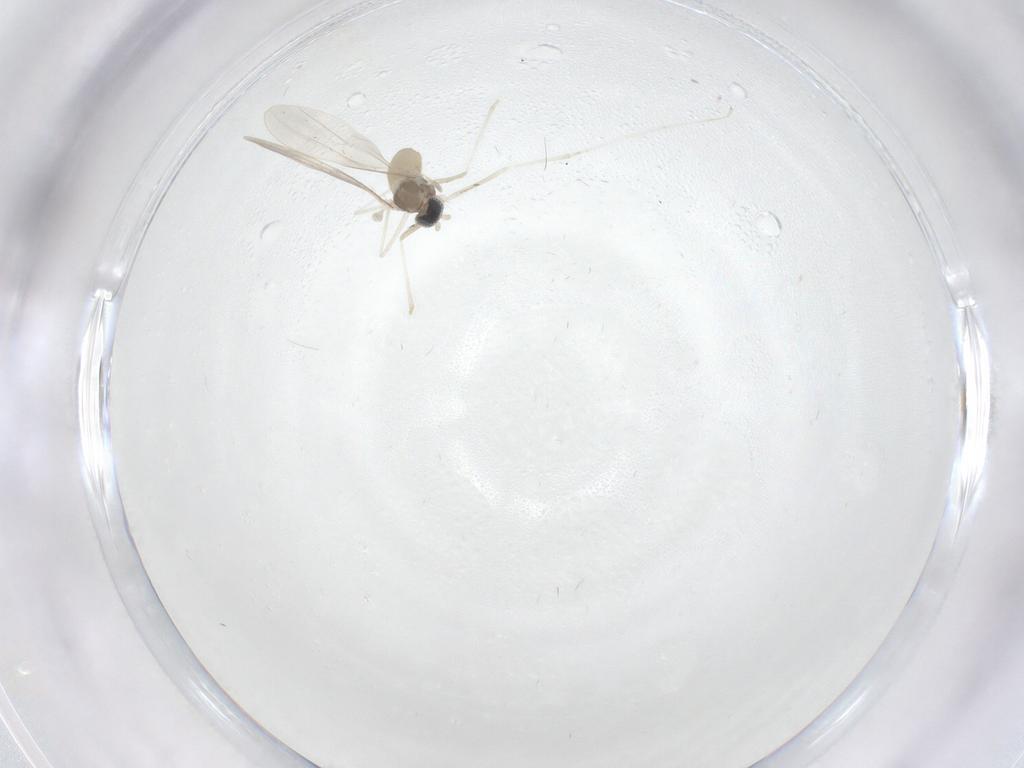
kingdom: Animalia
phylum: Arthropoda
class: Insecta
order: Diptera
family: Cecidomyiidae
